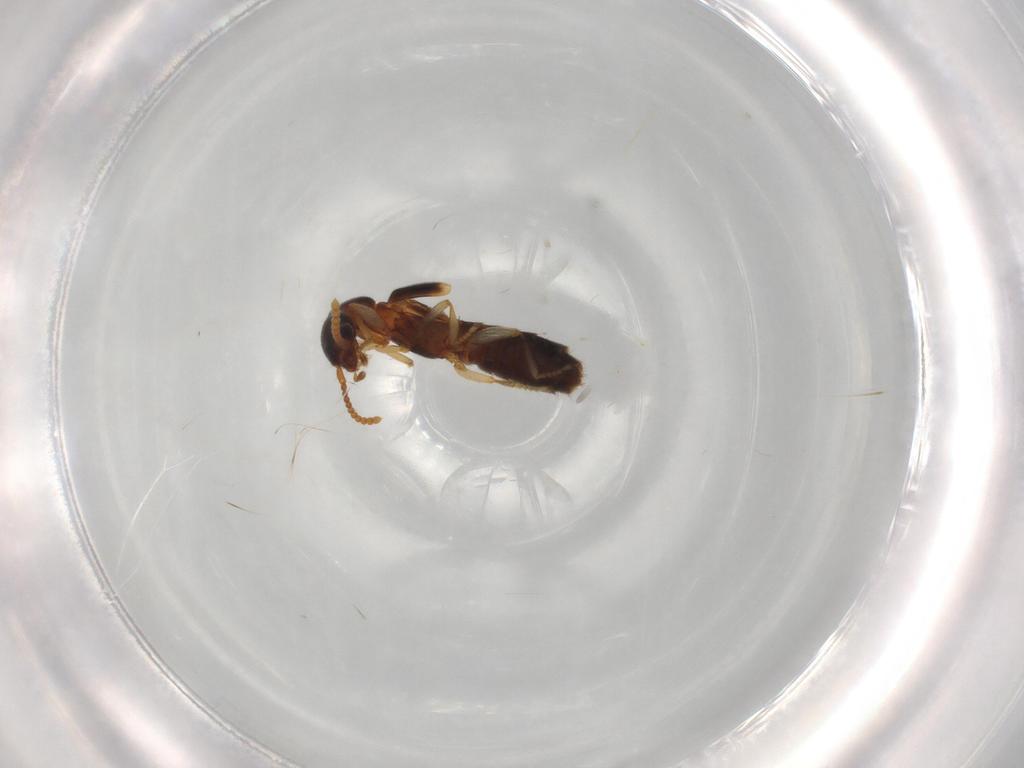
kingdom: Animalia
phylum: Arthropoda
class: Insecta
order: Coleoptera
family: Staphylinidae
